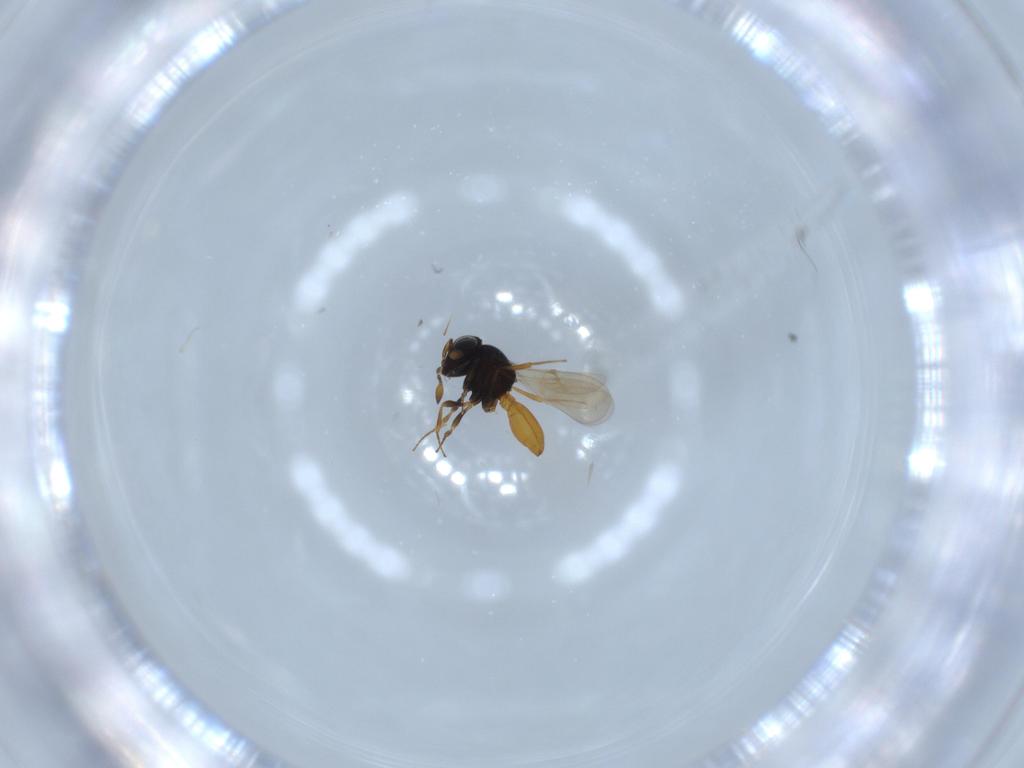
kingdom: Animalia
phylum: Arthropoda
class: Insecta
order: Hymenoptera
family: Scelionidae
